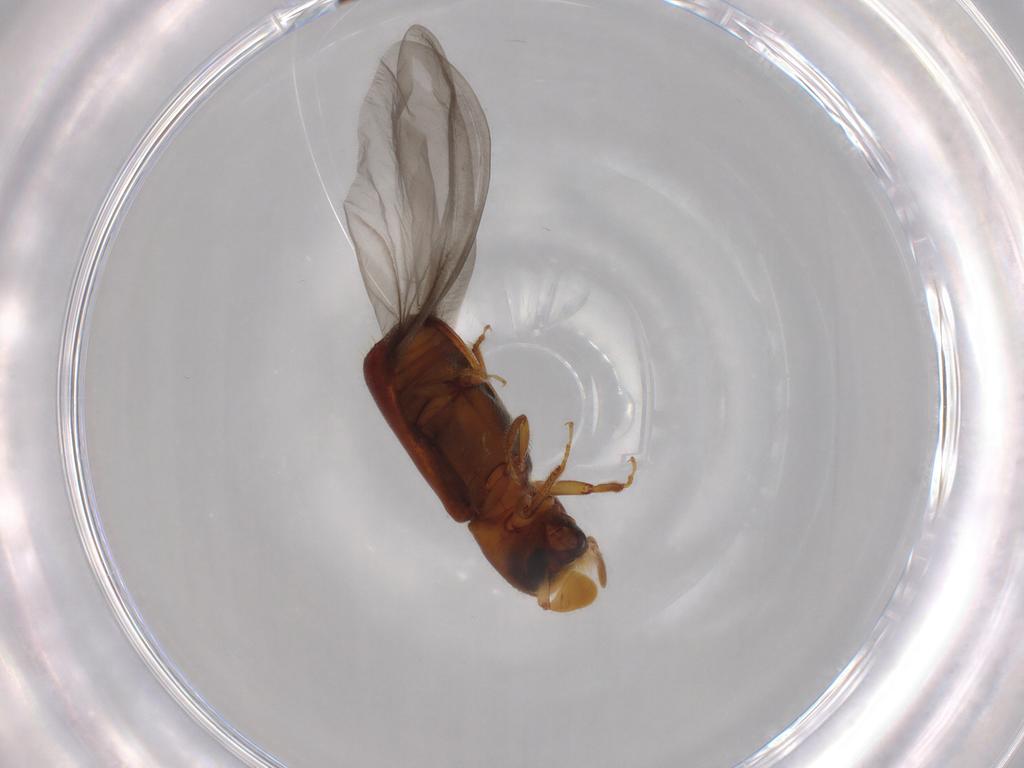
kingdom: Animalia
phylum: Arthropoda
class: Insecta
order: Coleoptera
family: Curculionidae
